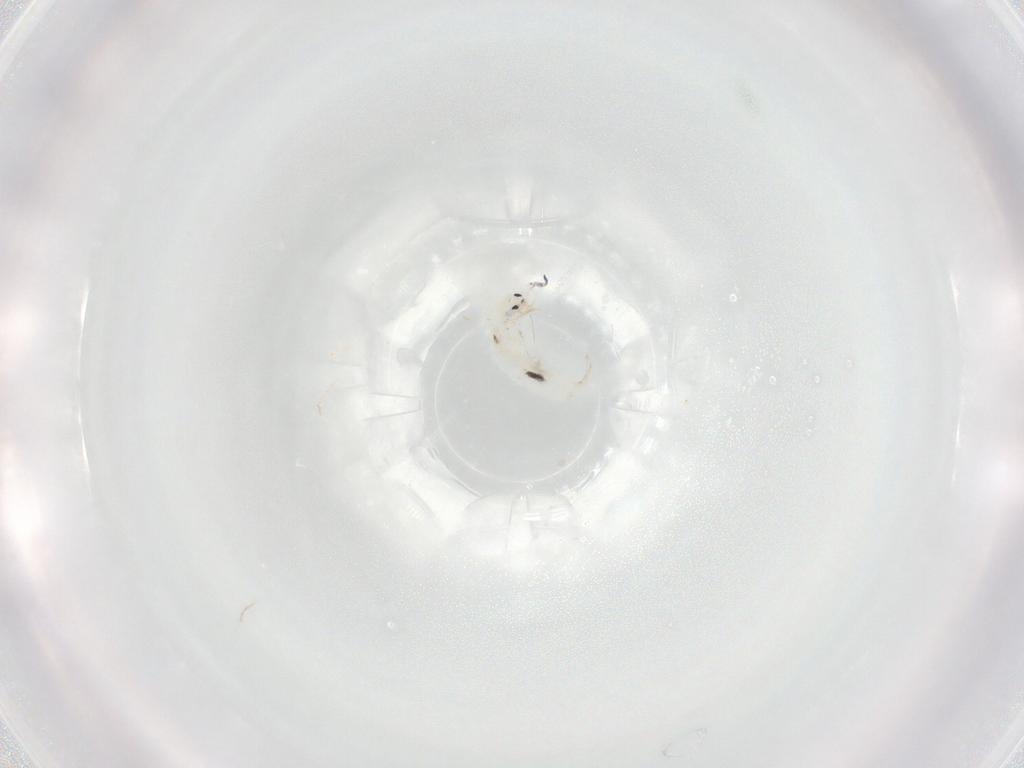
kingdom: Animalia
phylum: Arthropoda
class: Collembola
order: Entomobryomorpha
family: Entomobryidae
